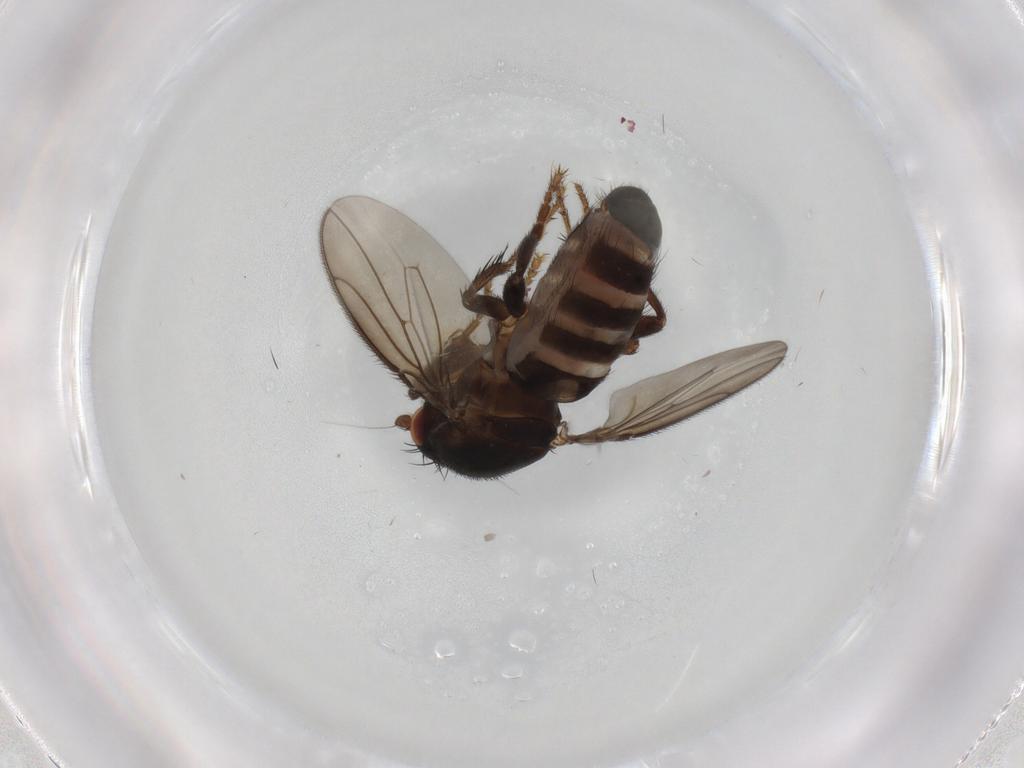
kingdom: Animalia
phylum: Arthropoda
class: Insecta
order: Diptera
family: Sphaeroceridae
